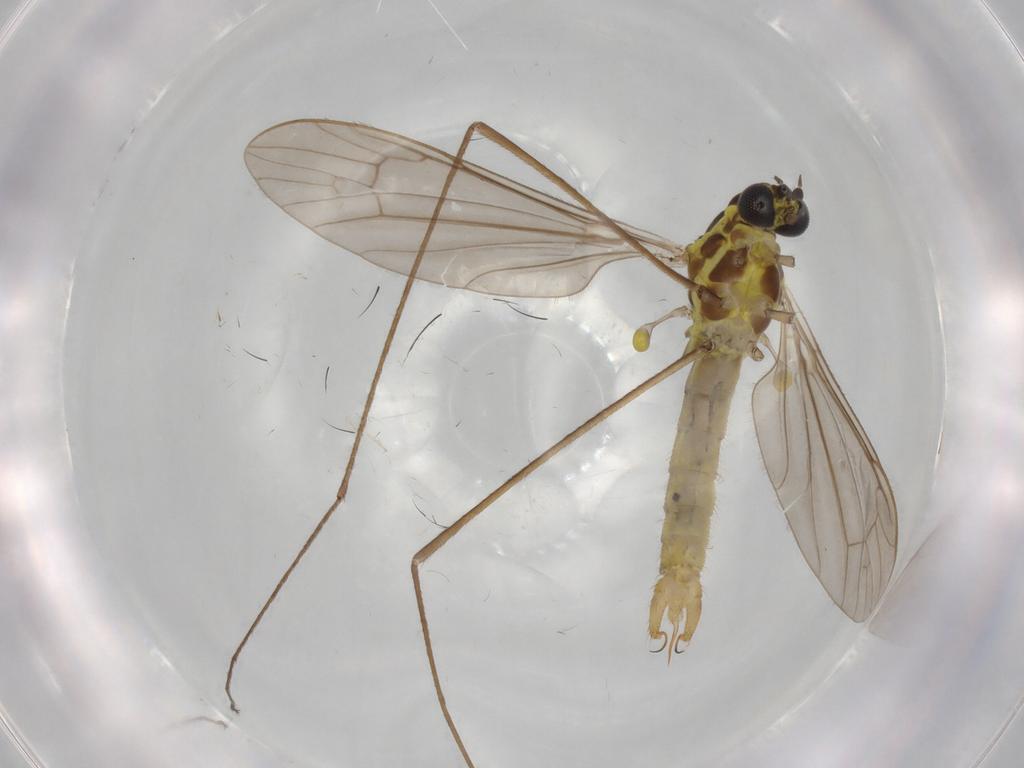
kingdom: Animalia
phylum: Arthropoda
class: Insecta
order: Diptera
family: Limoniidae
